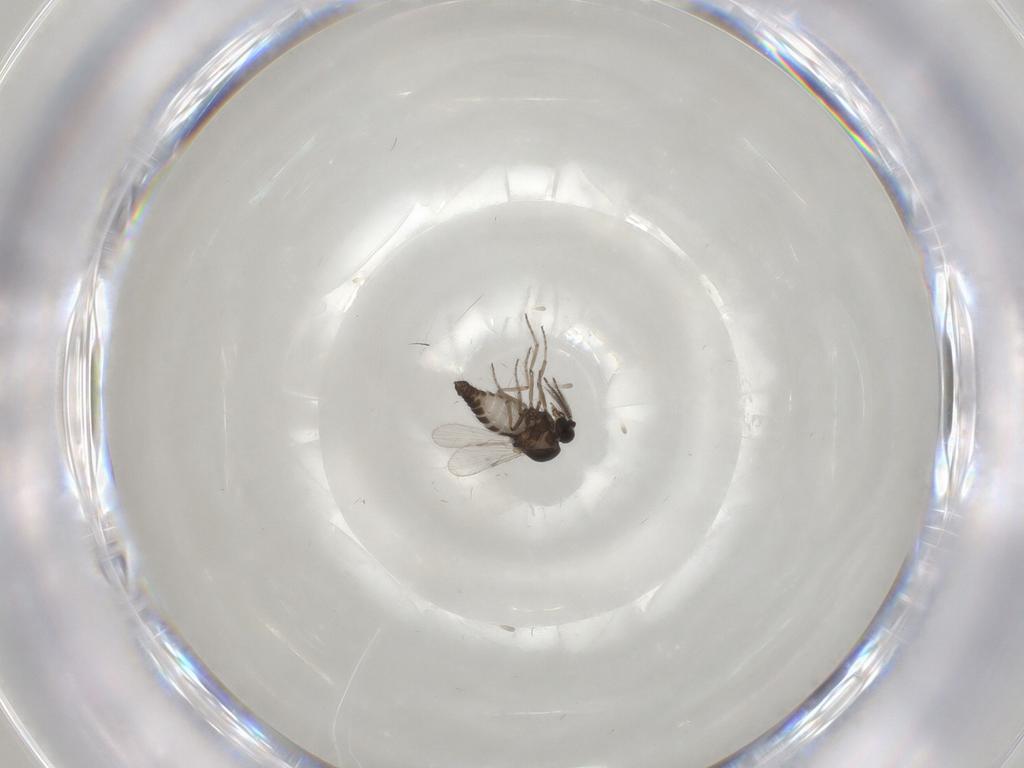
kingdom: Animalia
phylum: Arthropoda
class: Insecta
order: Diptera
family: Ceratopogonidae
